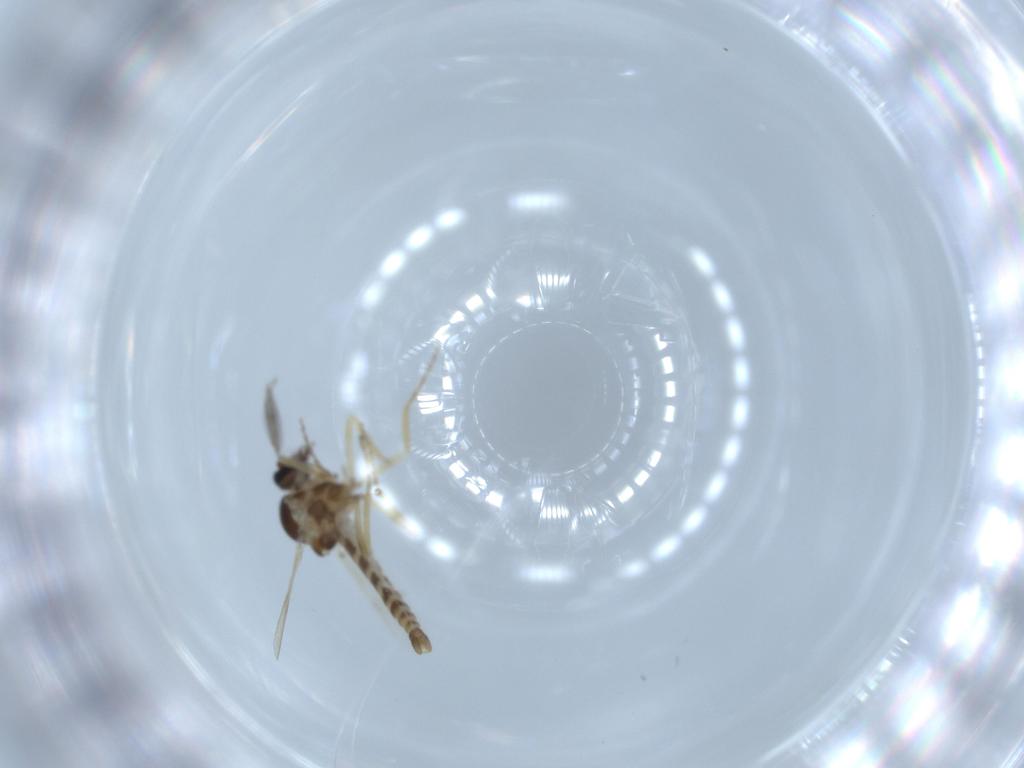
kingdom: Animalia
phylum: Arthropoda
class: Insecta
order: Diptera
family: Ceratopogonidae
